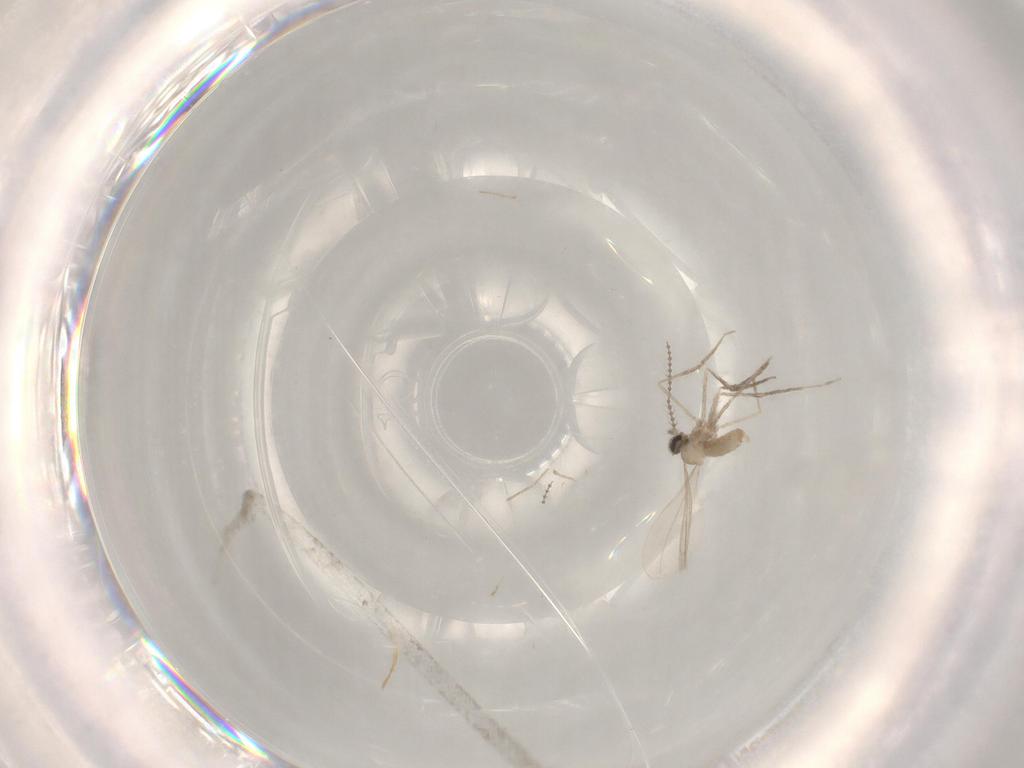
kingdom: Animalia
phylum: Arthropoda
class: Insecta
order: Diptera
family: Cecidomyiidae
